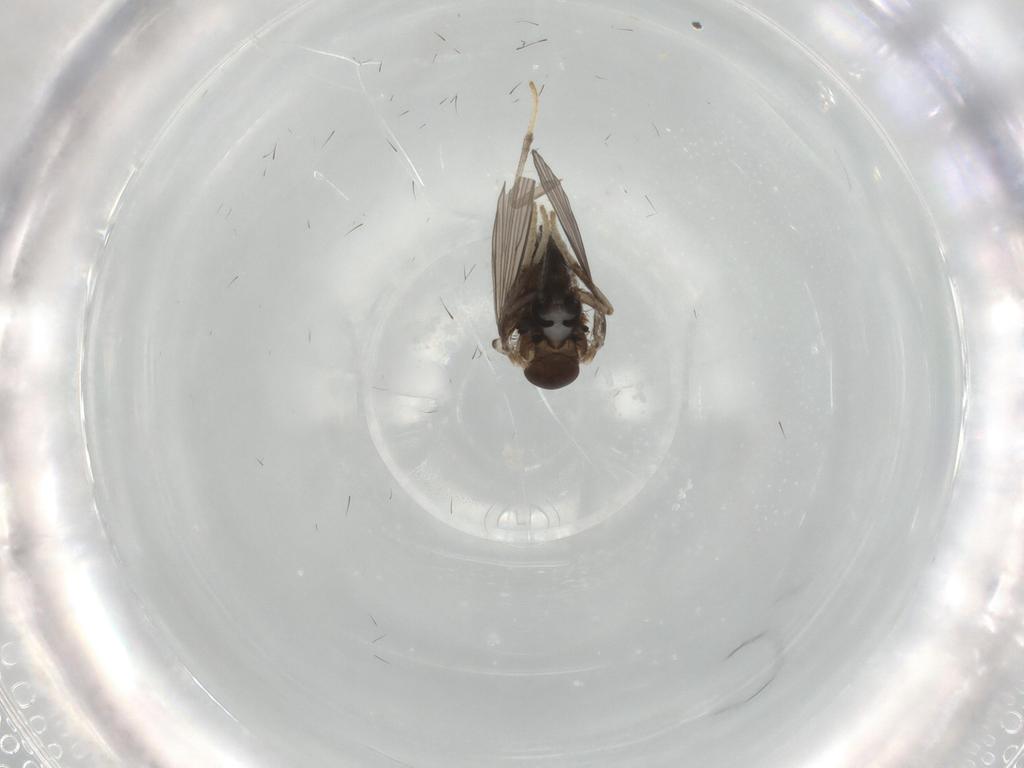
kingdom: Animalia
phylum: Arthropoda
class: Insecta
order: Diptera
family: Psychodidae
